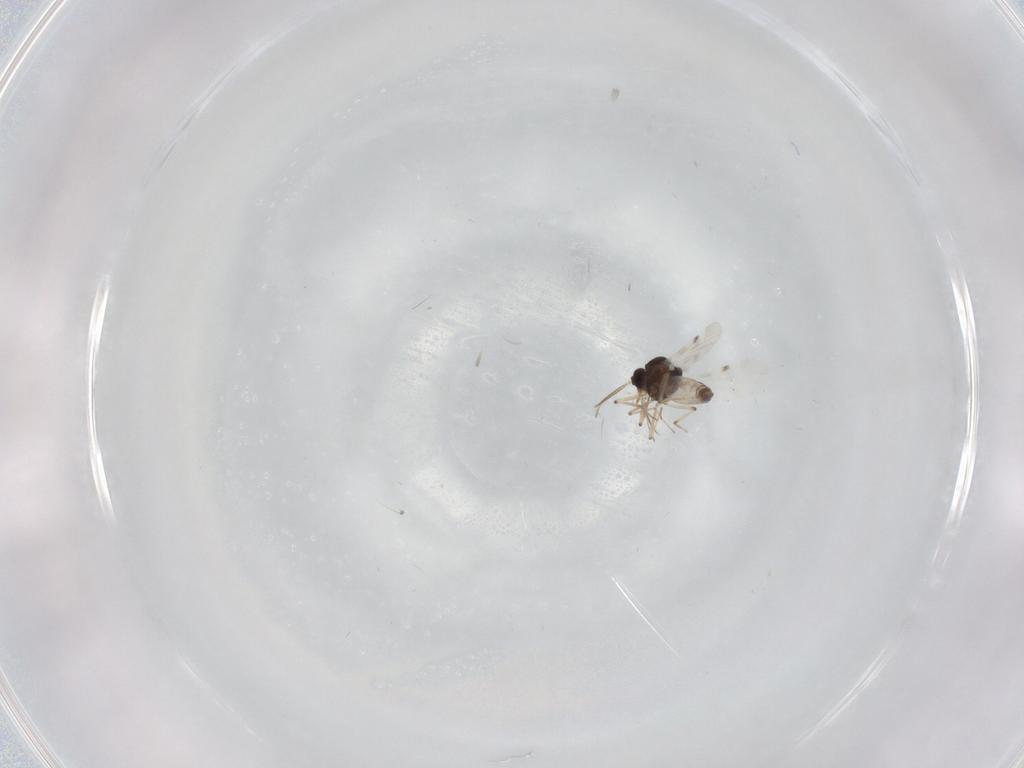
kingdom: Animalia
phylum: Arthropoda
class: Insecta
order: Diptera
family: Psychodidae
